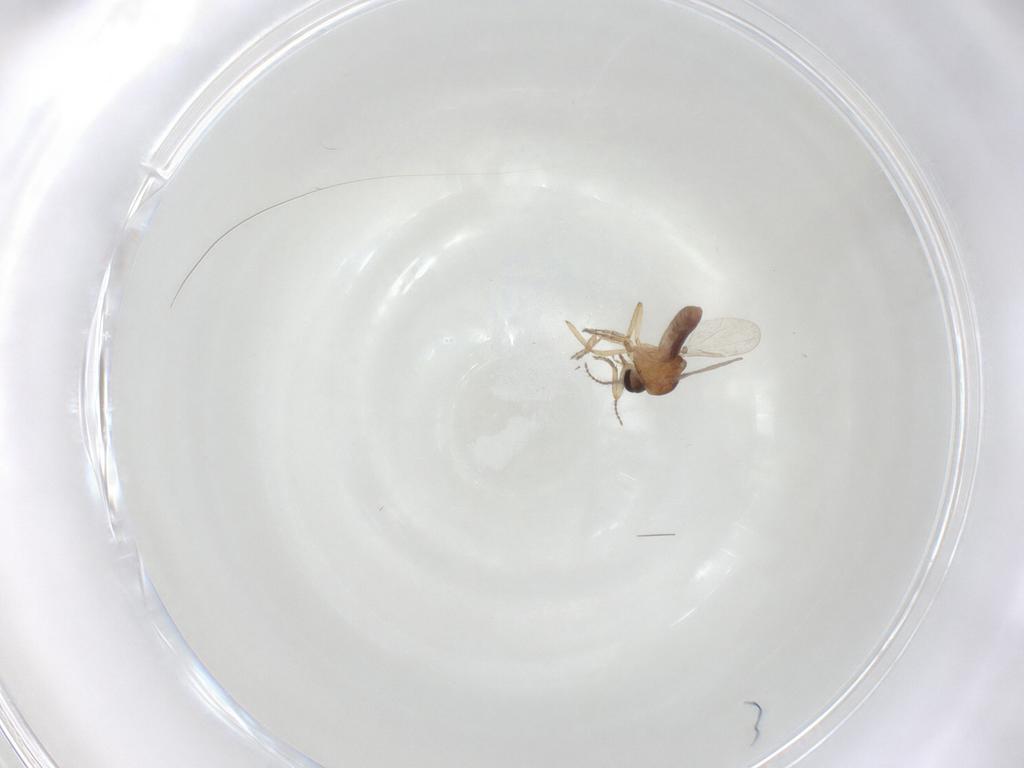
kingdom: Animalia
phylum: Arthropoda
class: Insecta
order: Diptera
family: Ceratopogonidae
